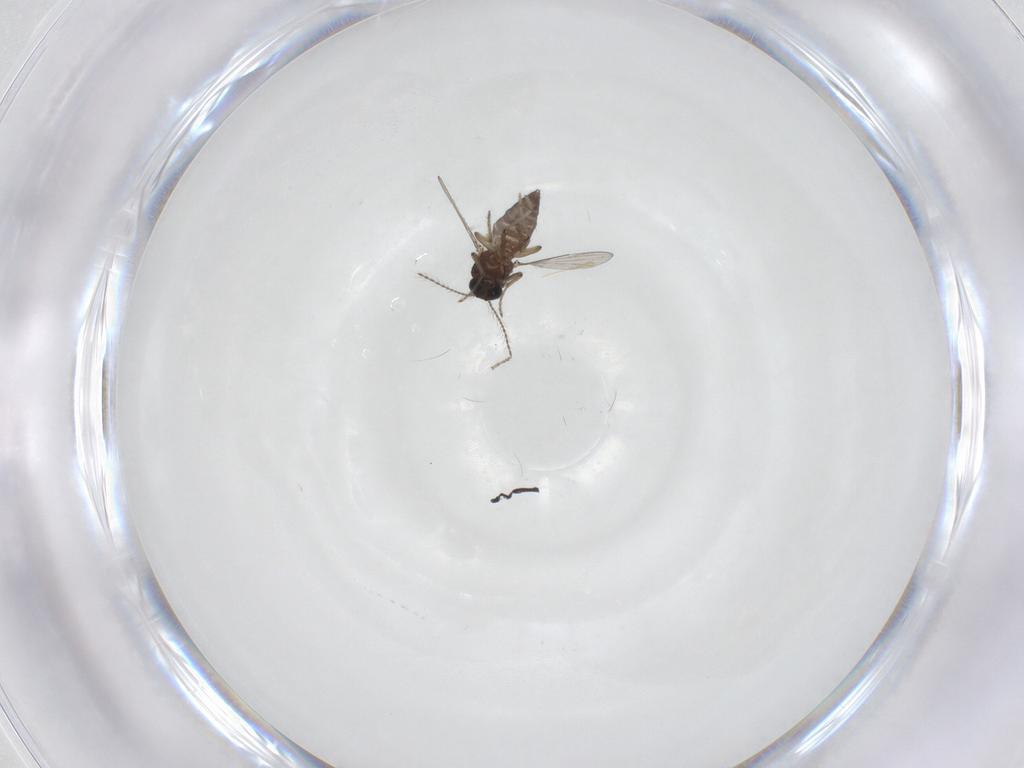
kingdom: Animalia
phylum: Arthropoda
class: Insecta
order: Diptera
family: Ceratopogonidae
